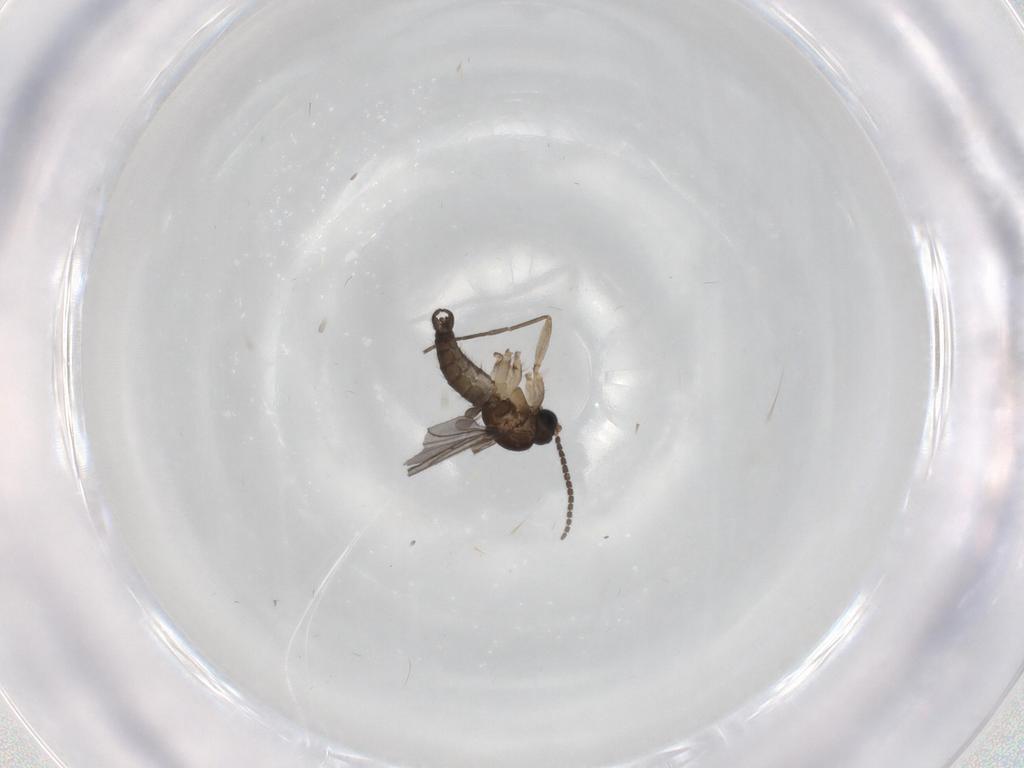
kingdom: Animalia
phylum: Arthropoda
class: Insecta
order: Diptera
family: Sciaridae
